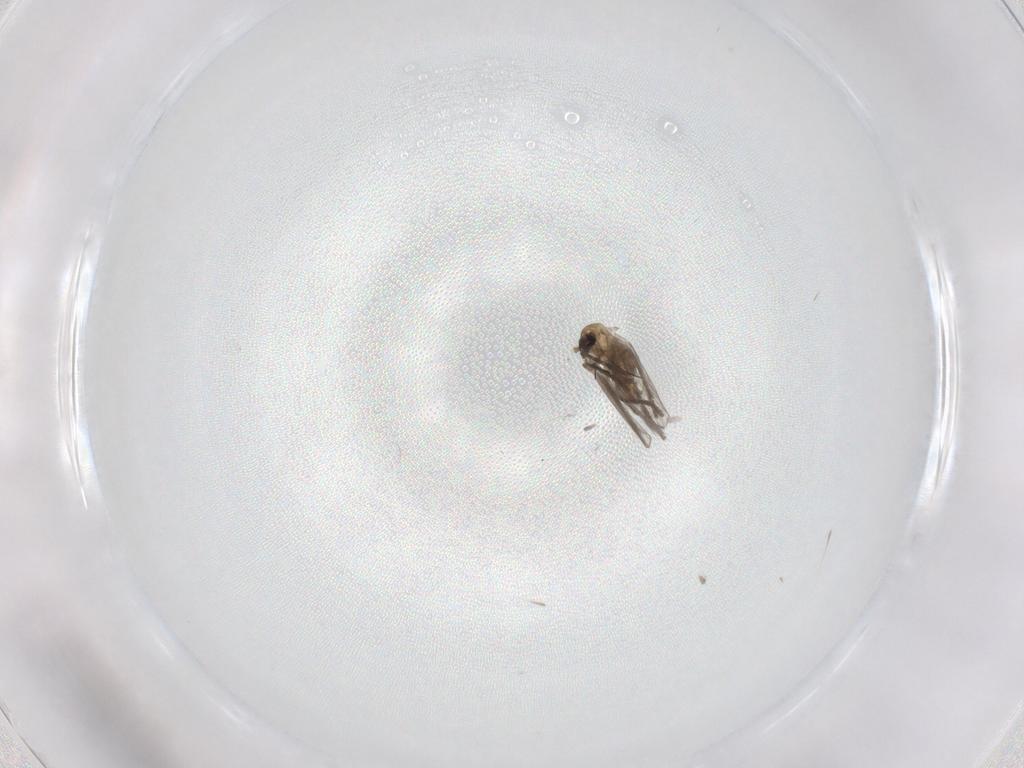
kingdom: Animalia
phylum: Arthropoda
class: Insecta
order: Diptera
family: Psychodidae
